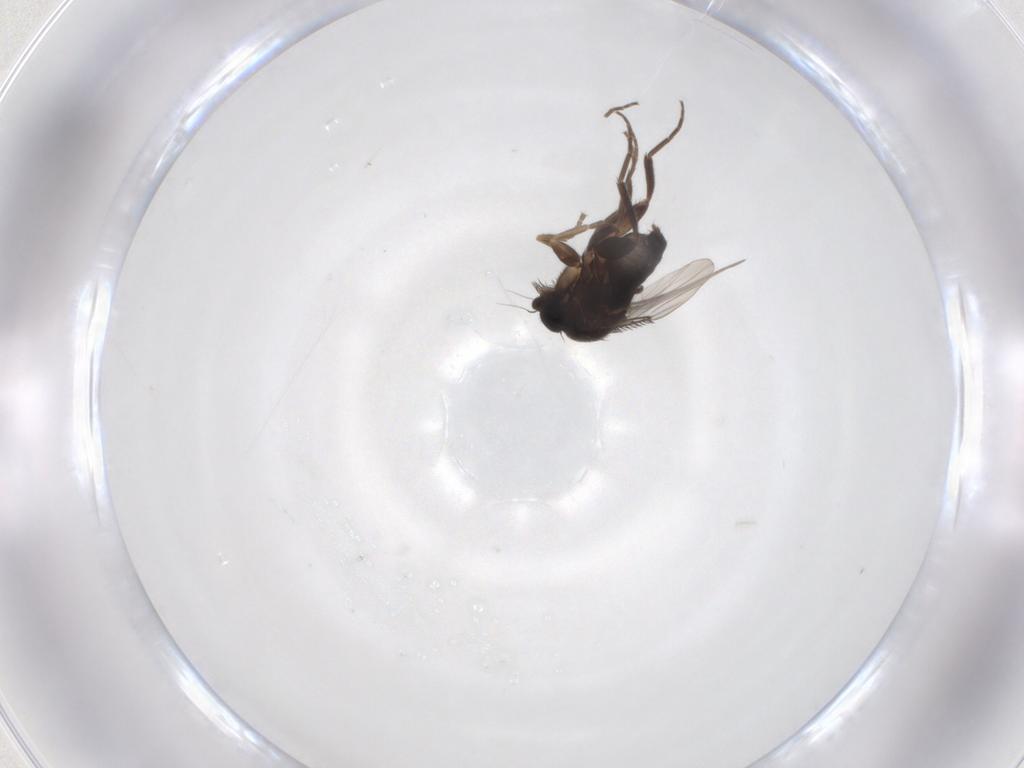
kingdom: Animalia
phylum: Arthropoda
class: Insecta
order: Diptera
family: Phoridae
